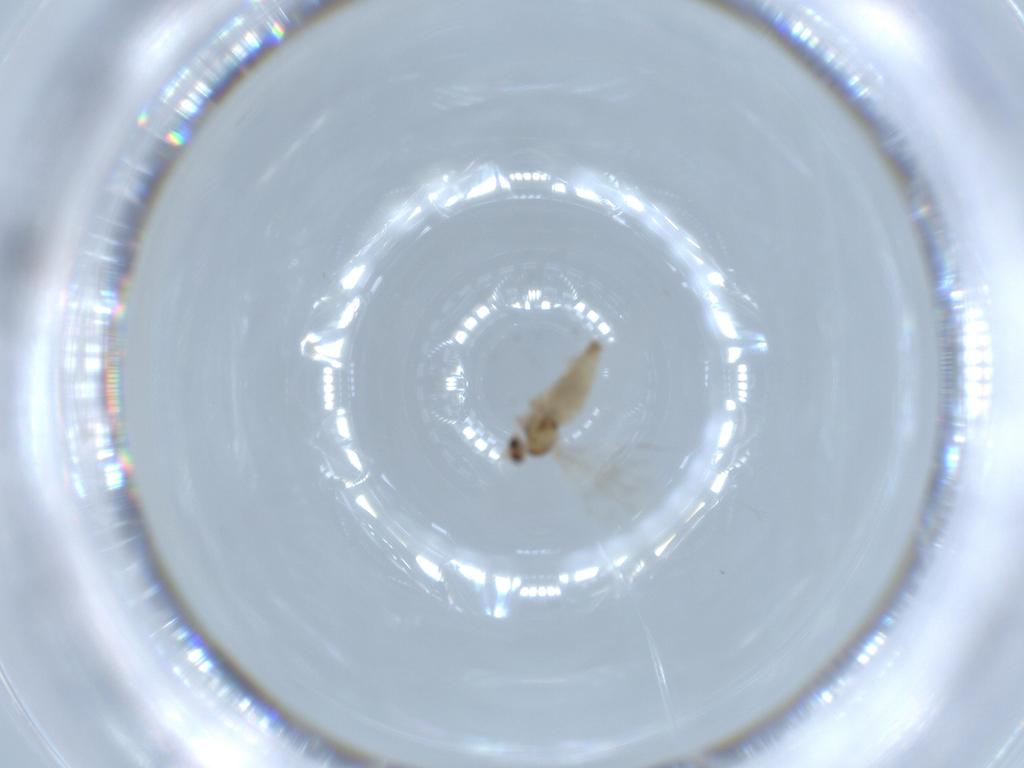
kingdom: Animalia
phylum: Arthropoda
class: Insecta
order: Diptera
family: Cecidomyiidae
